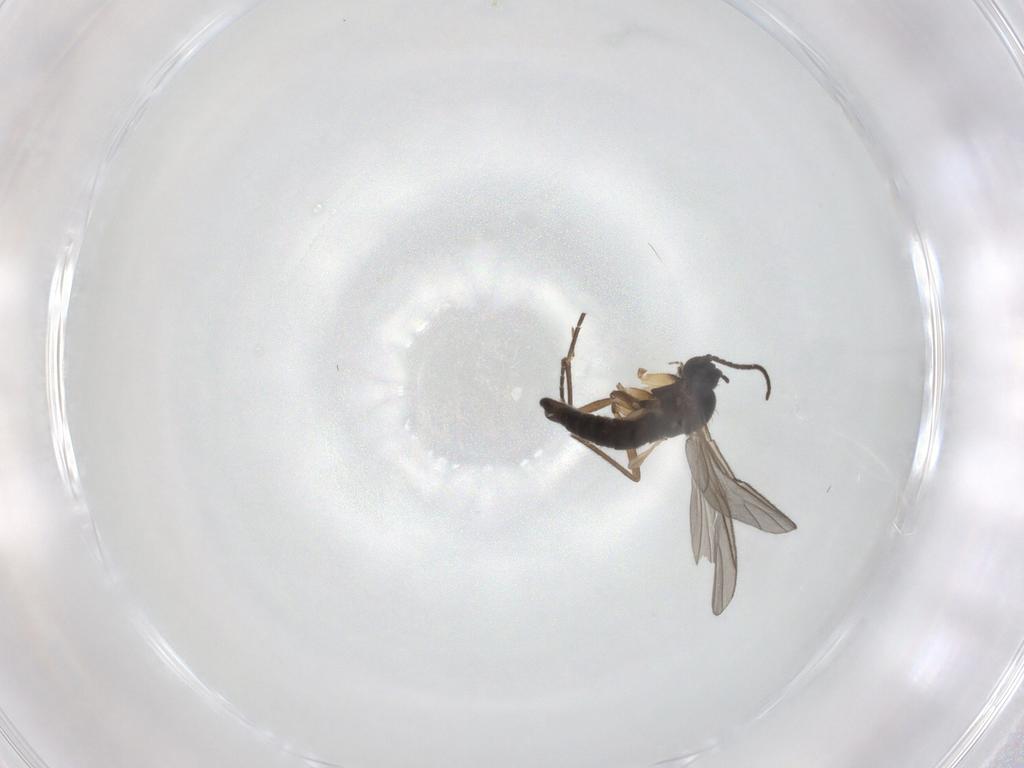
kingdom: Animalia
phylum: Arthropoda
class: Insecta
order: Diptera
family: Sciaridae
